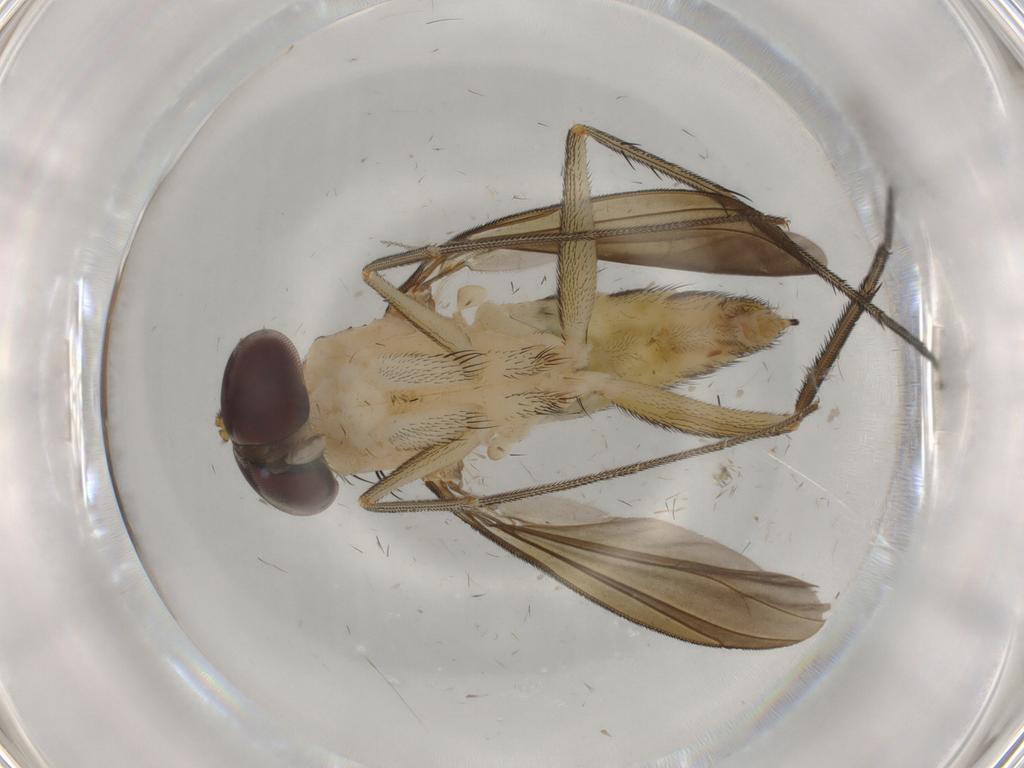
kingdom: Animalia
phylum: Arthropoda
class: Insecta
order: Diptera
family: Dolichopodidae
